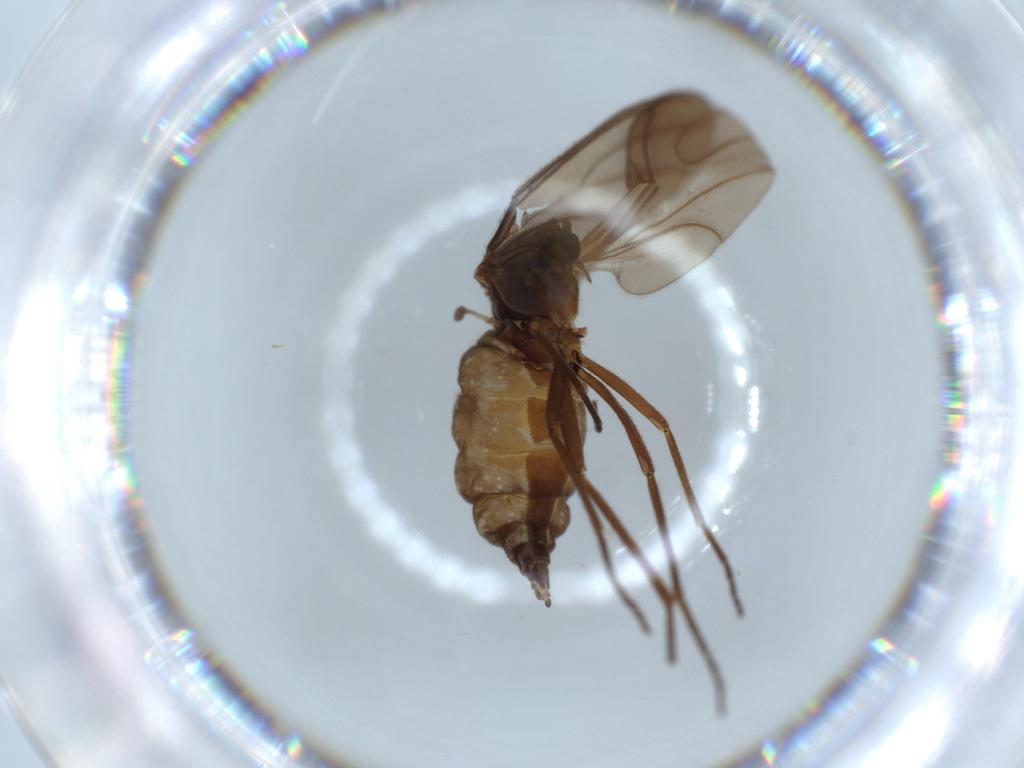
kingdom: Animalia
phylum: Arthropoda
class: Insecta
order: Diptera
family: Sciaridae
